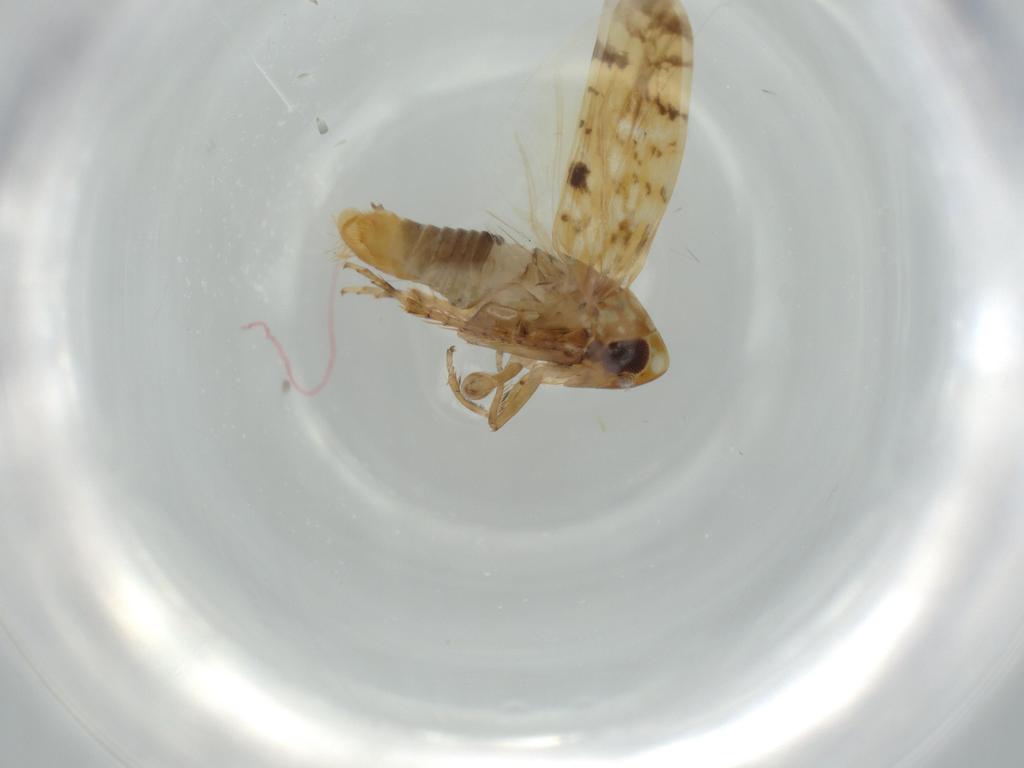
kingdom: Animalia
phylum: Arthropoda
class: Insecta
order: Hemiptera
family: Cicadellidae
